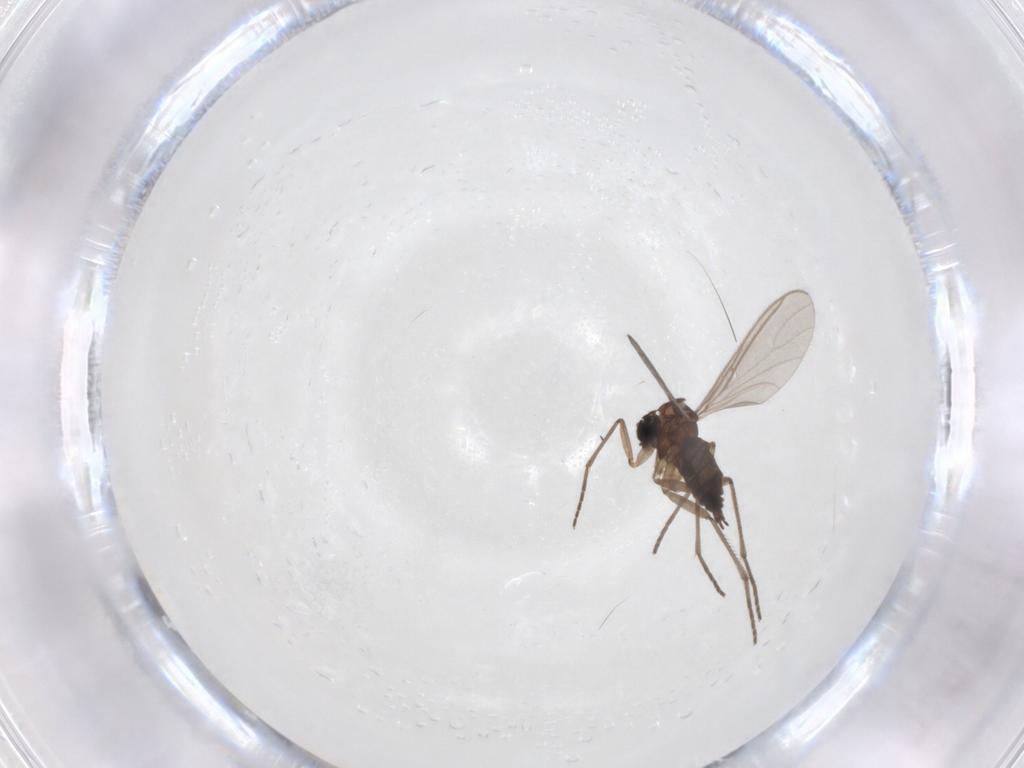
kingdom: Animalia
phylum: Arthropoda
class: Insecta
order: Diptera
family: Sciaridae
